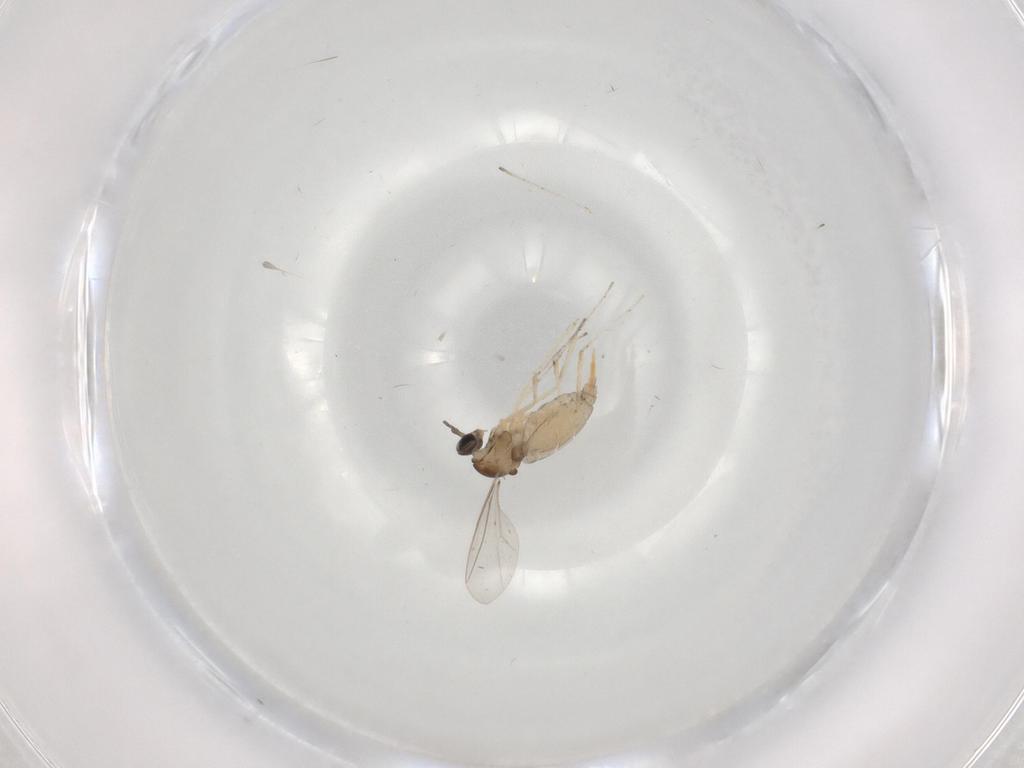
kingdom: Animalia
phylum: Arthropoda
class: Insecta
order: Diptera
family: Cecidomyiidae
